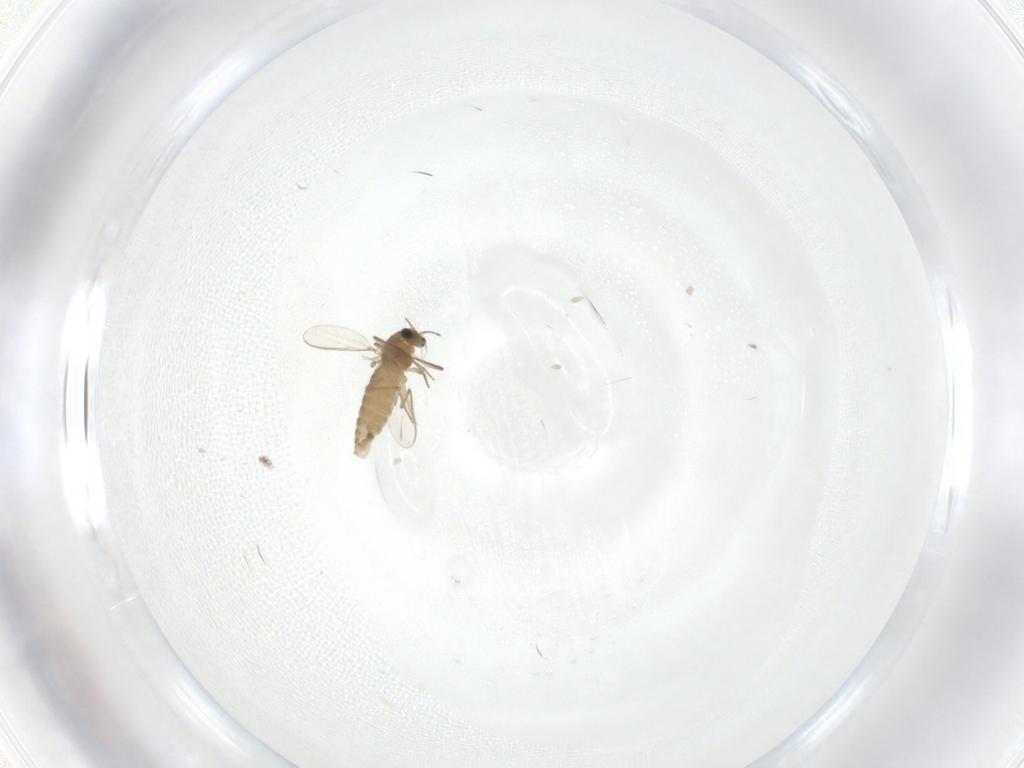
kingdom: Animalia
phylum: Arthropoda
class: Insecta
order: Diptera
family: Chironomidae
